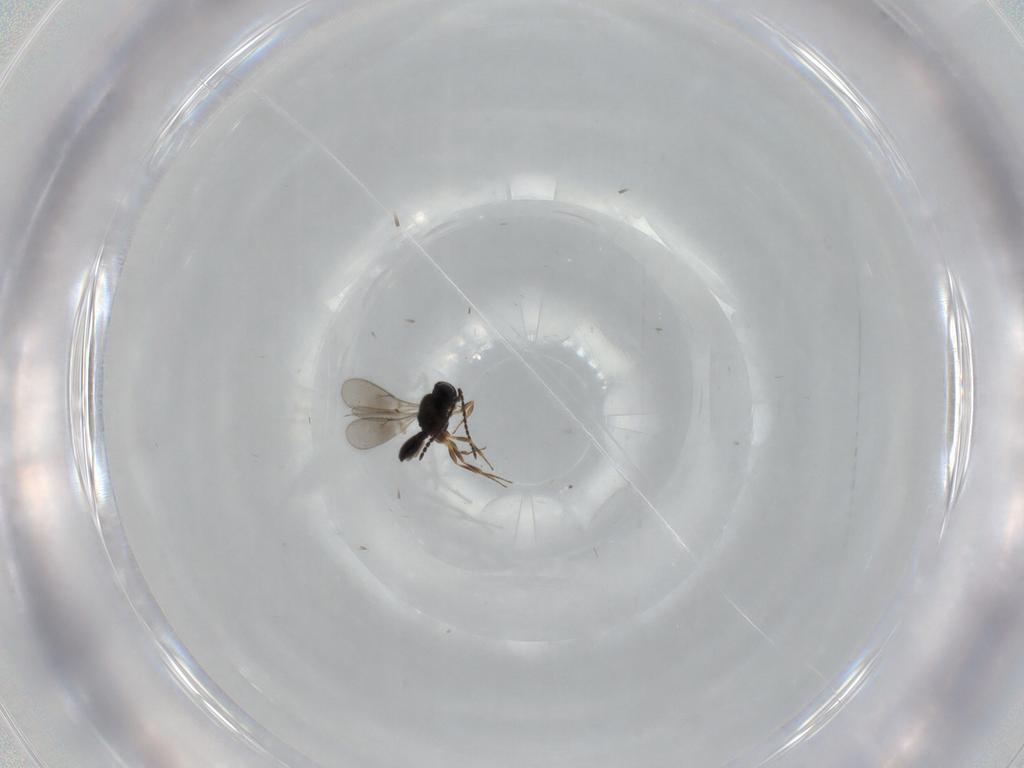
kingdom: Animalia
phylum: Arthropoda
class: Insecta
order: Hymenoptera
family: Scelionidae
